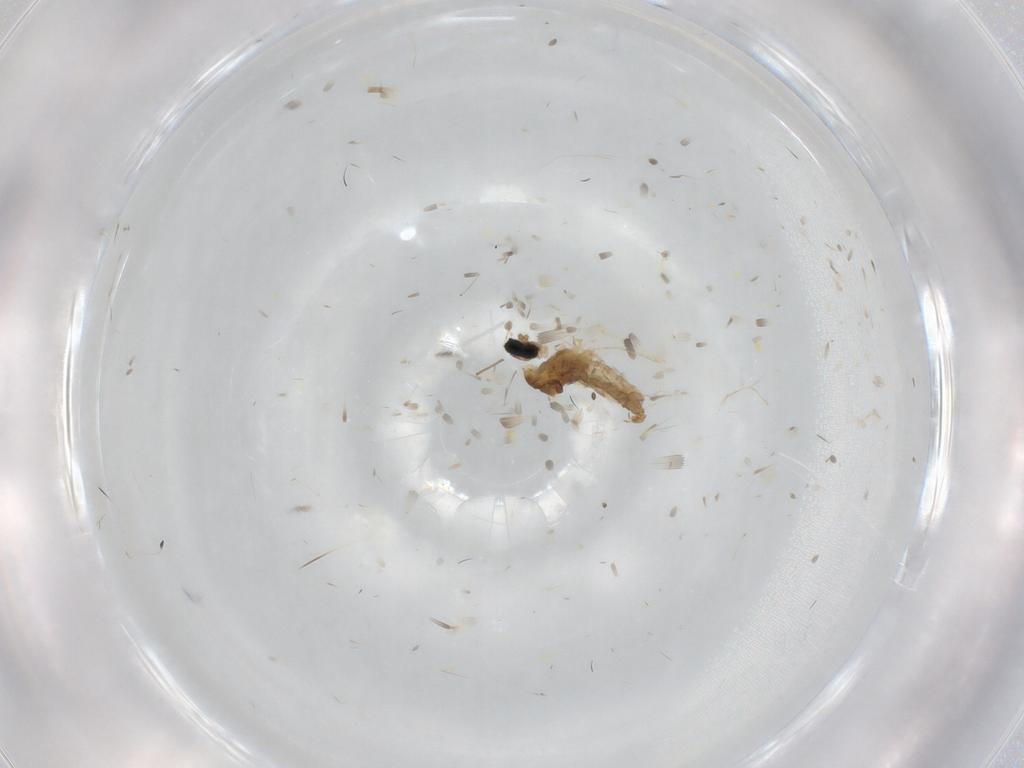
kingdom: Animalia
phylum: Arthropoda
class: Insecta
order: Diptera
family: Cecidomyiidae
